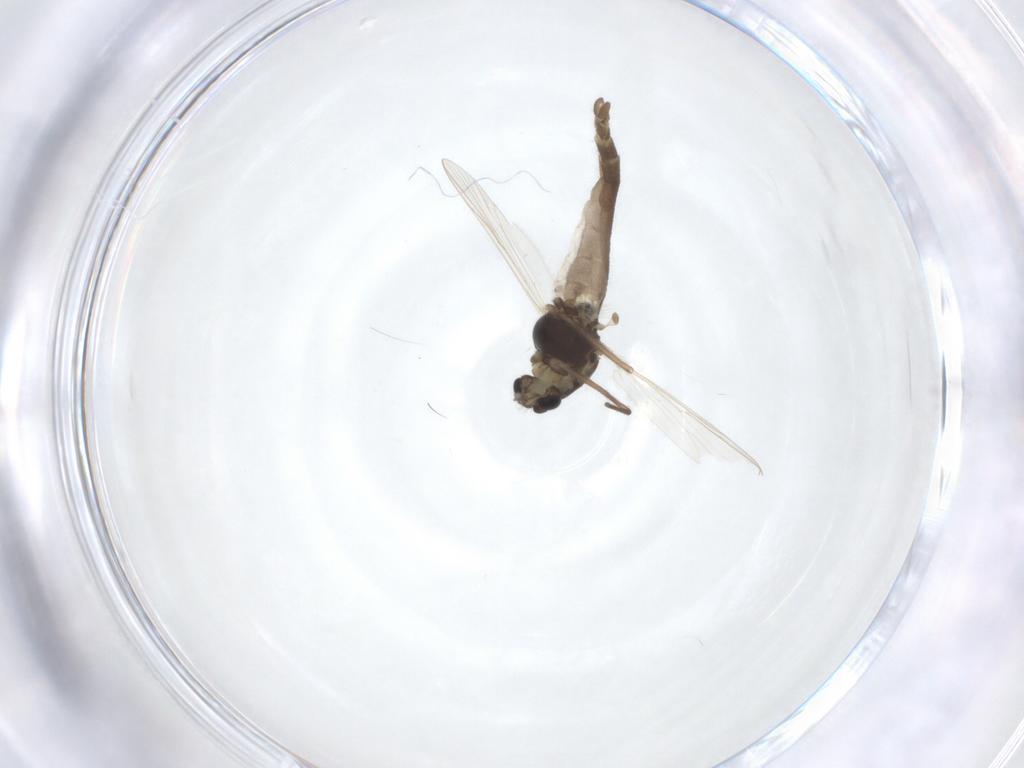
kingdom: Animalia
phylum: Arthropoda
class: Insecta
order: Diptera
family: Chironomidae
